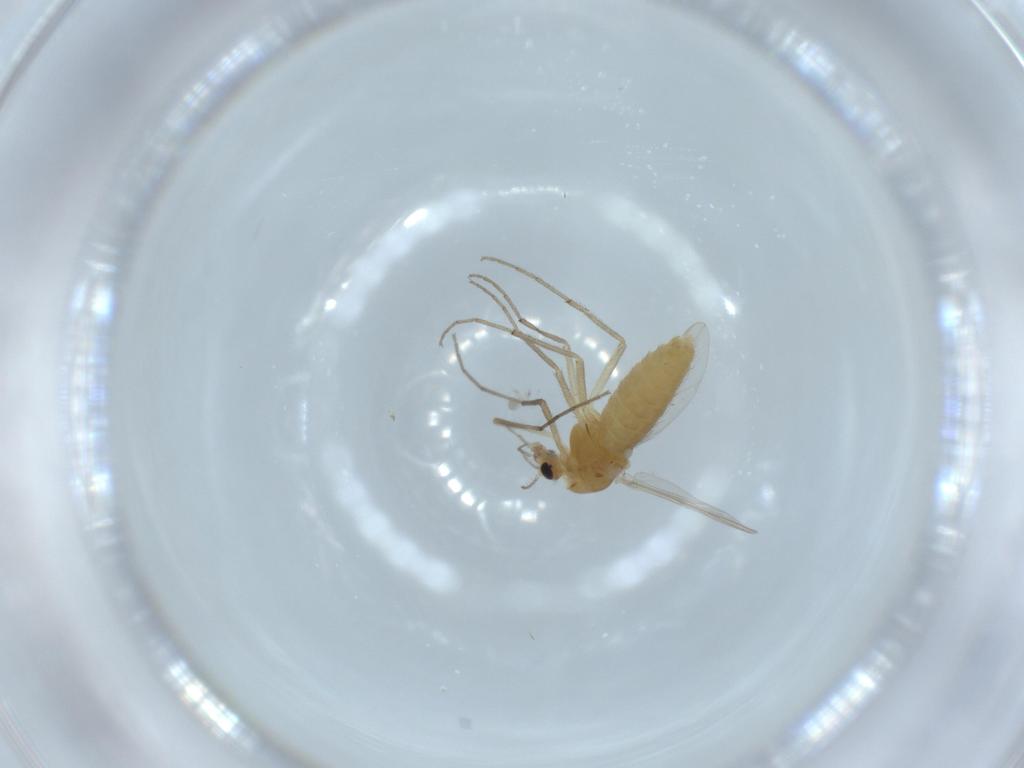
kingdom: Animalia
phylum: Arthropoda
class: Insecta
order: Diptera
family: Chironomidae
